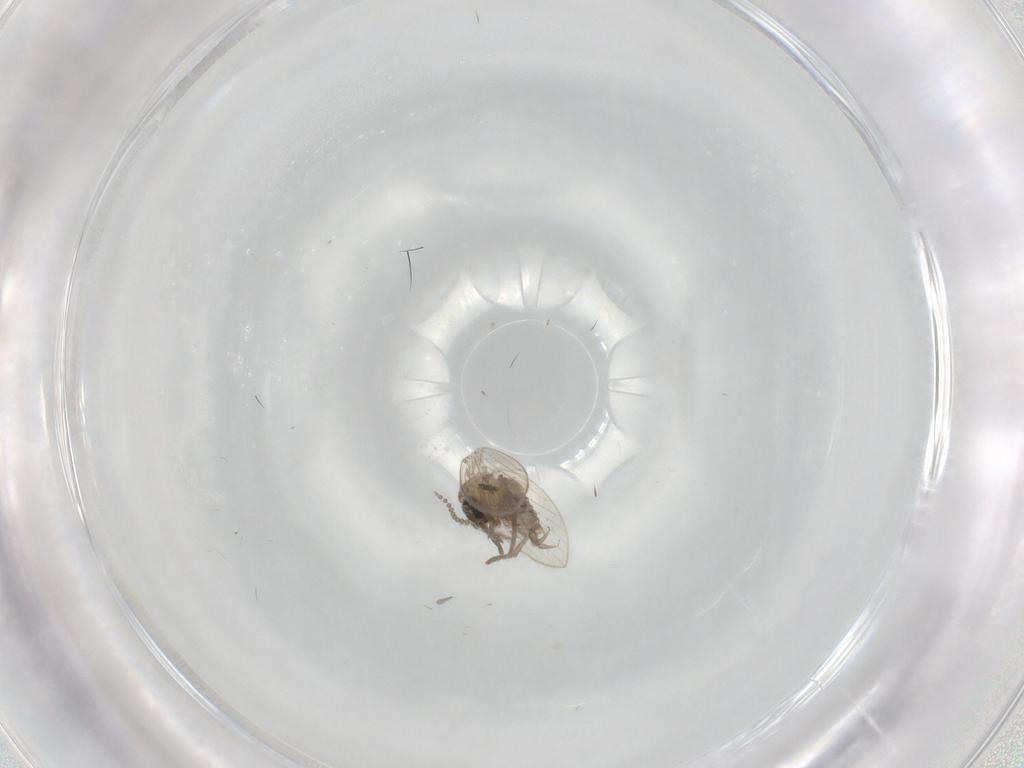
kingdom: Animalia
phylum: Arthropoda
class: Insecta
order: Diptera
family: Psychodidae
